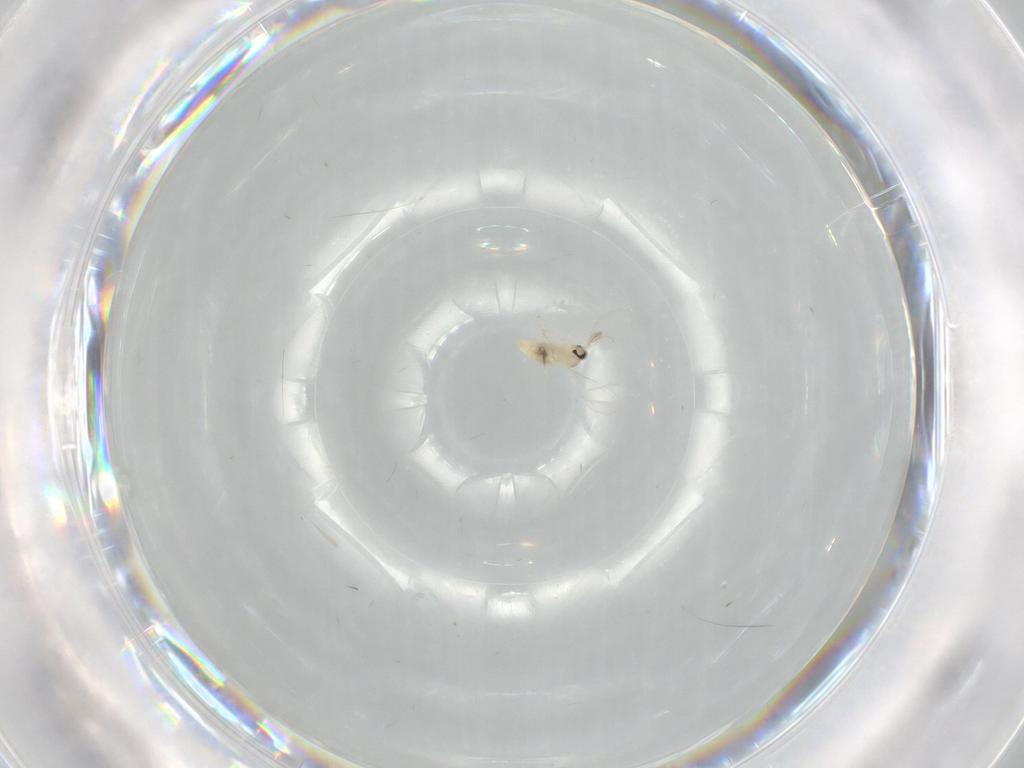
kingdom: Animalia
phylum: Arthropoda
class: Insecta
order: Diptera
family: Cecidomyiidae
